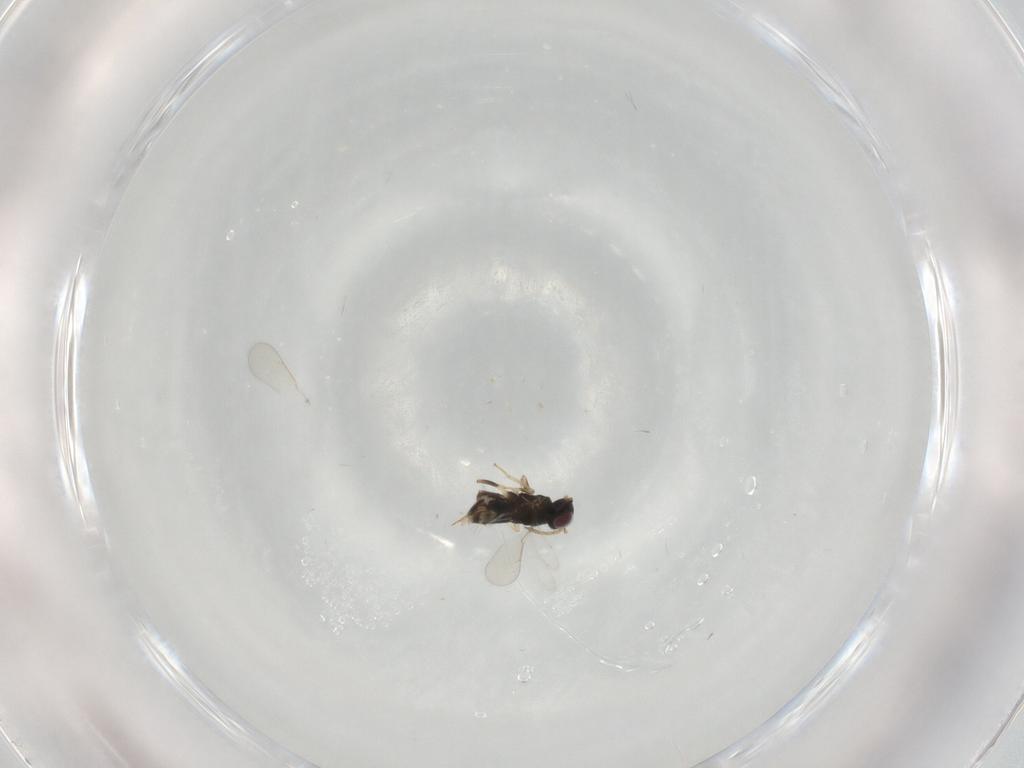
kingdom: Animalia
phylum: Arthropoda
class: Insecta
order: Hymenoptera
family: Aphelinidae
